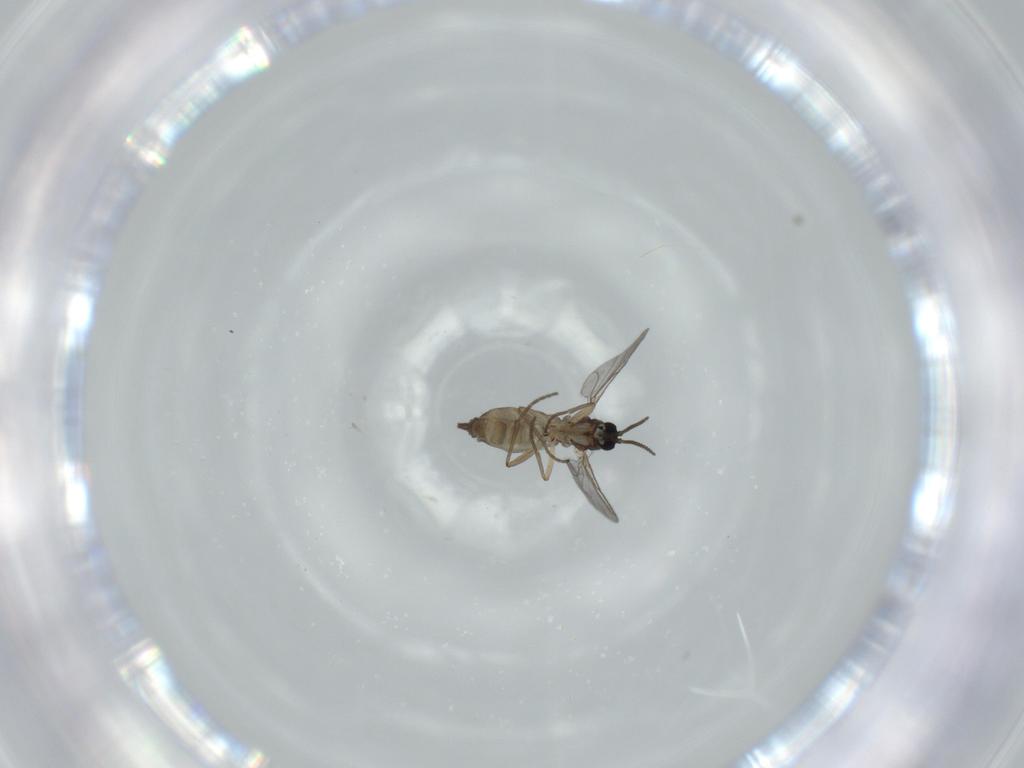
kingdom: Animalia
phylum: Arthropoda
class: Insecta
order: Diptera
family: Sciaridae
